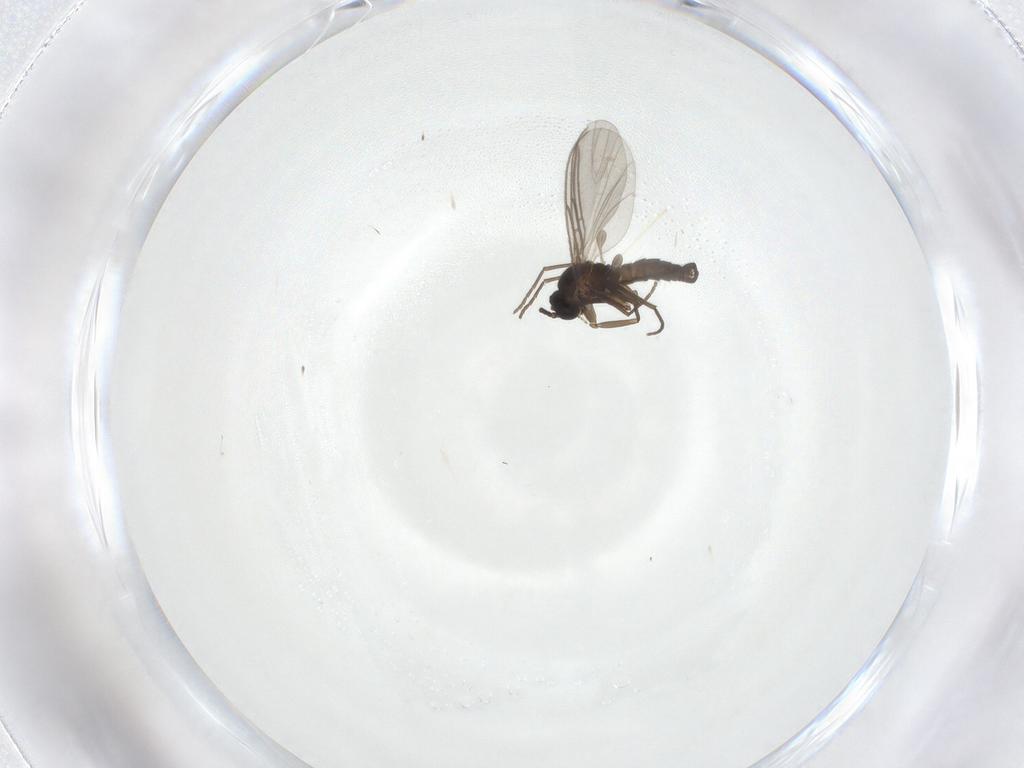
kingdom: Animalia
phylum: Arthropoda
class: Insecta
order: Diptera
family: Sciaridae
